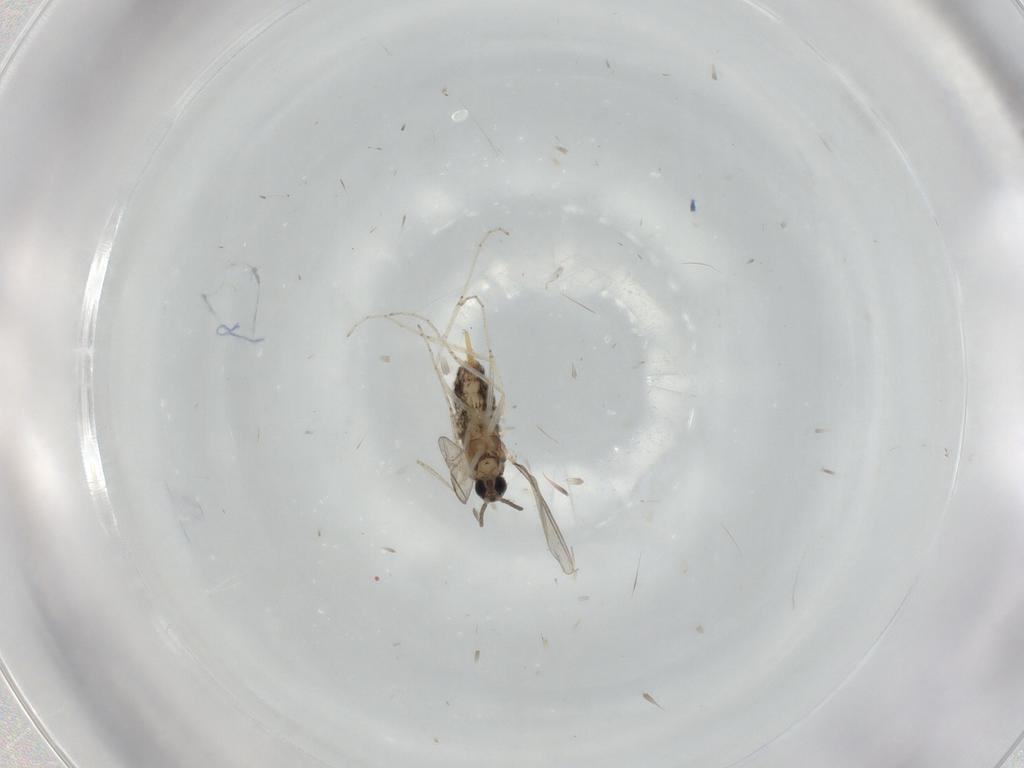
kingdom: Animalia
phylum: Arthropoda
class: Insecta
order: Diptera
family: Cecidomyiidae
